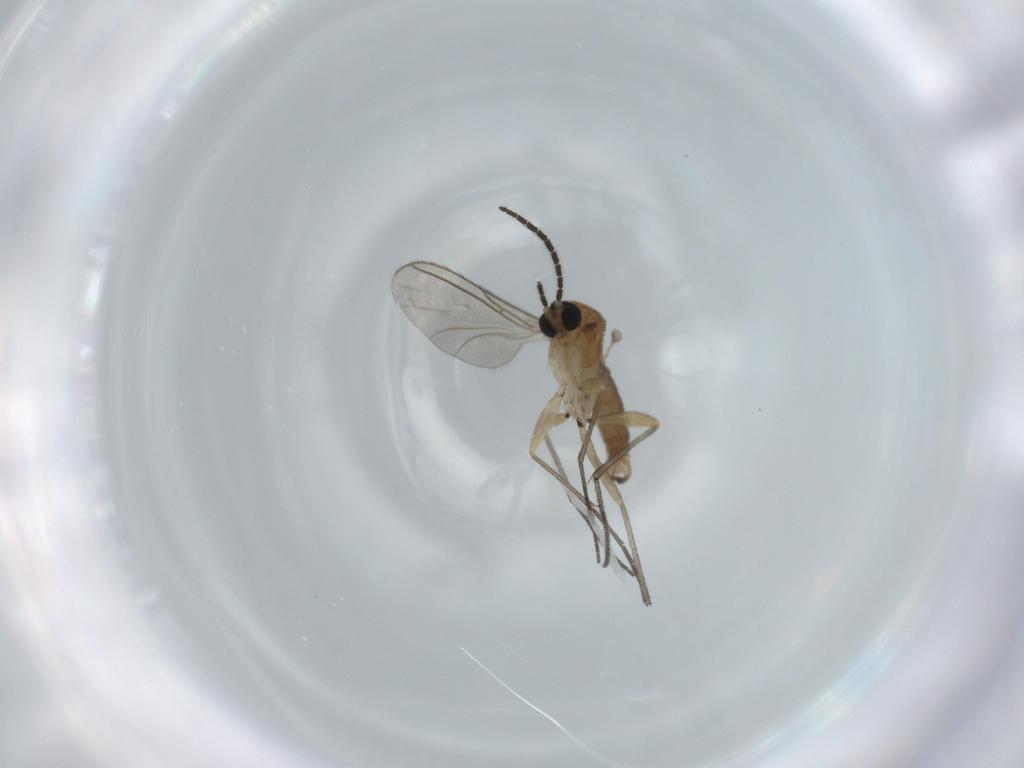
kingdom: Animalia
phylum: Arthropoda
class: Insecta
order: Diptera
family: Sciaridae
